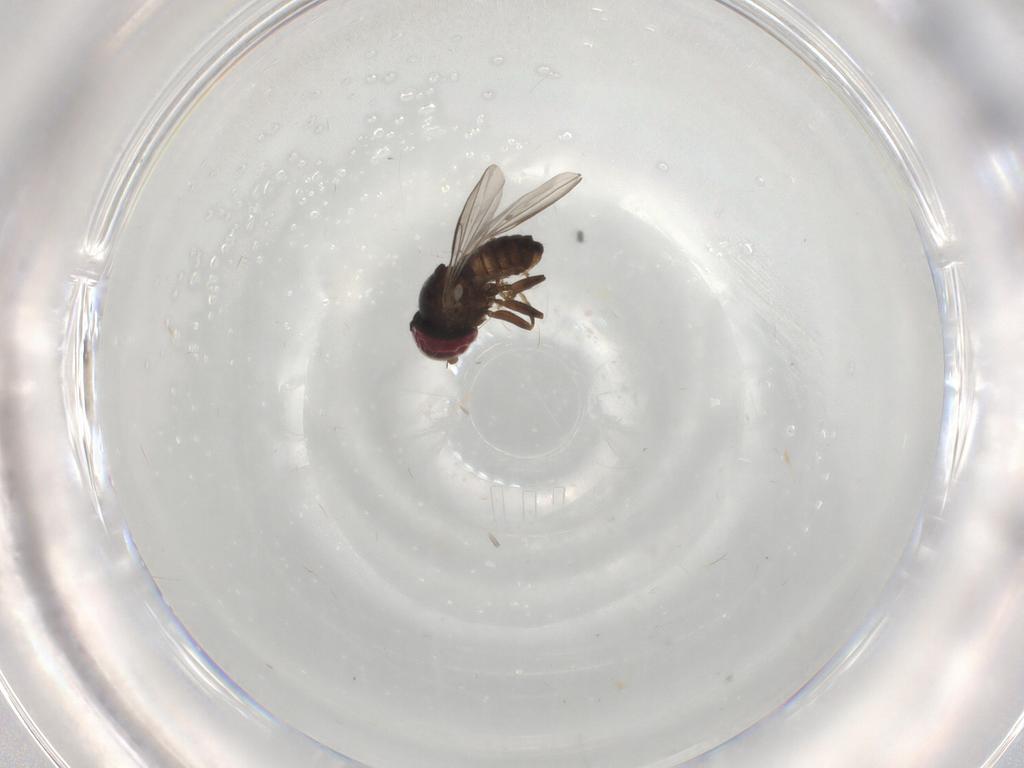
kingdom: Animalia
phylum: Arthropoda
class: Insecta
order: Diptera
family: Pipunculidae
